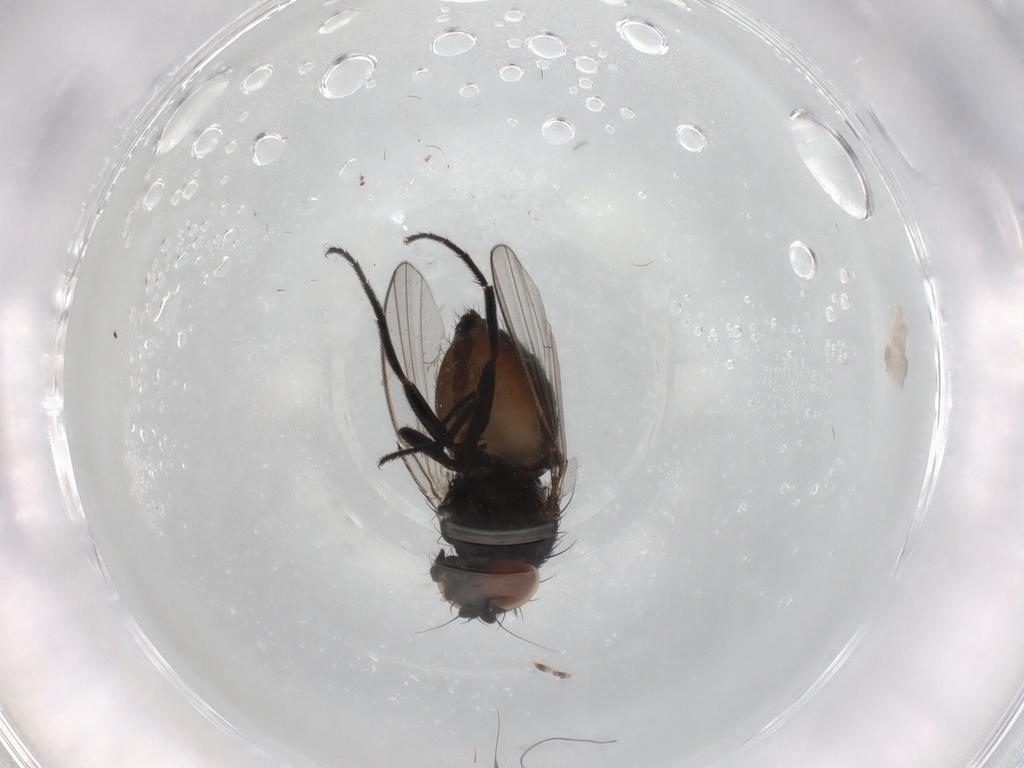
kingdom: Animalia
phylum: Arthropoda
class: Insecta
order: Diptera
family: Milichiidae
